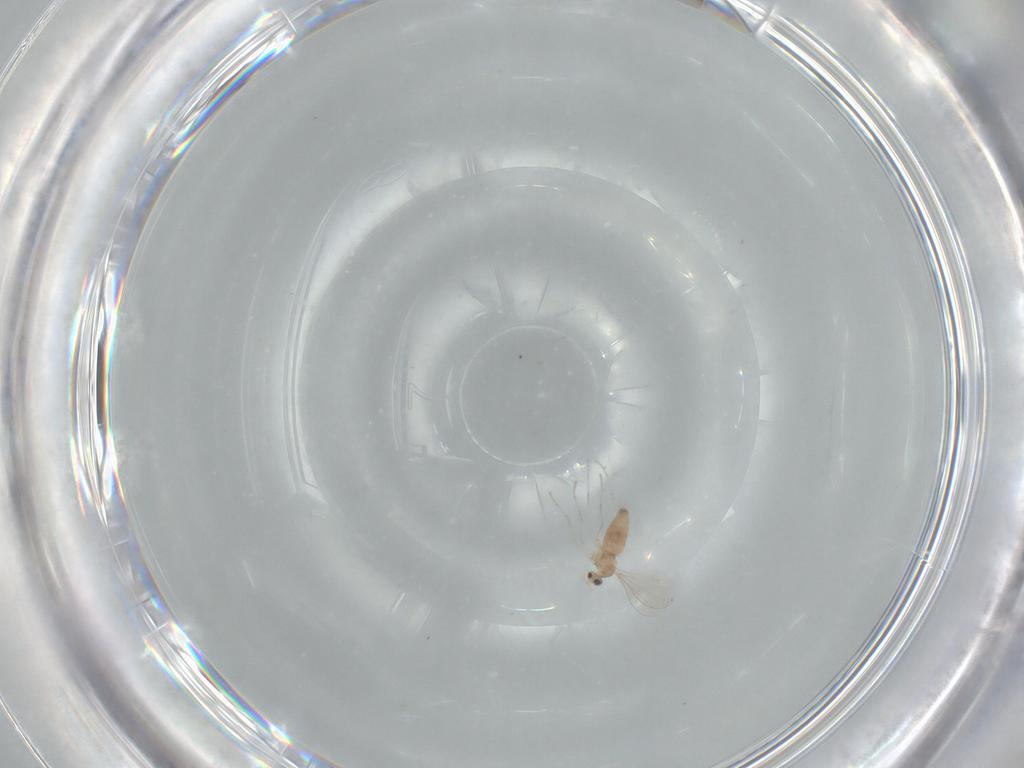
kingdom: Animalia
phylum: Arthropoda
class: Insecta
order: Diptera
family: Cecidomyiidae
